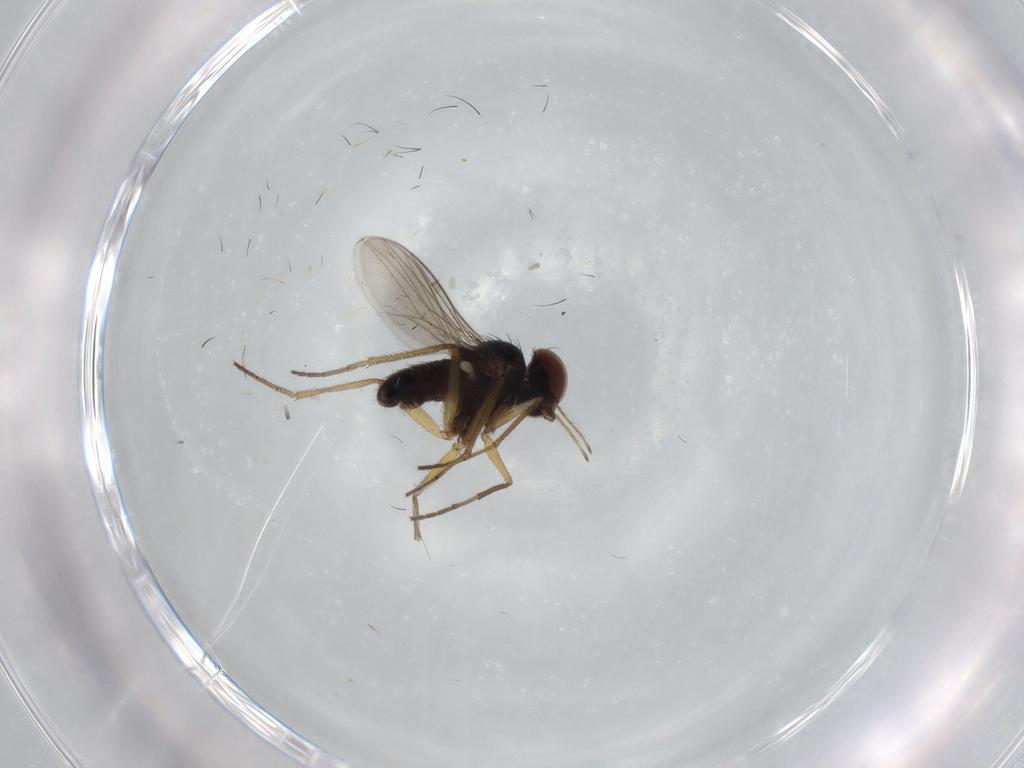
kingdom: Animalia
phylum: Arthropoda
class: Insecta
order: Diptera
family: Dolichopodidae
